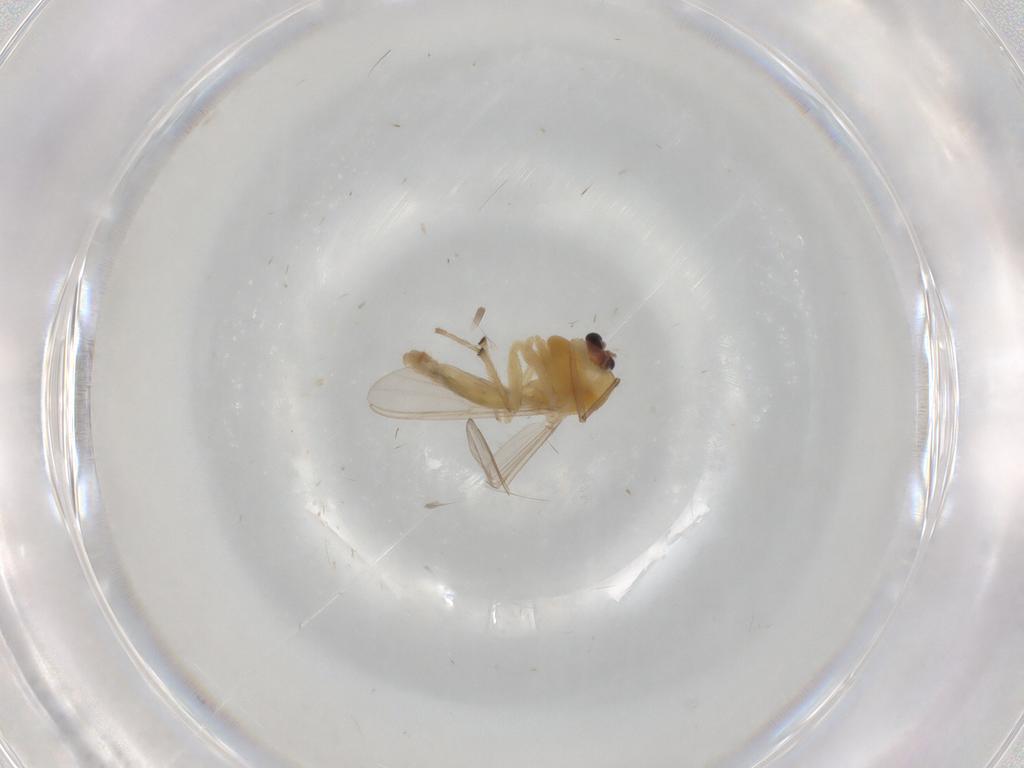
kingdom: Animalia
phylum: Arthropoda
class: Insecta
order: Diptera
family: Chironomidae
